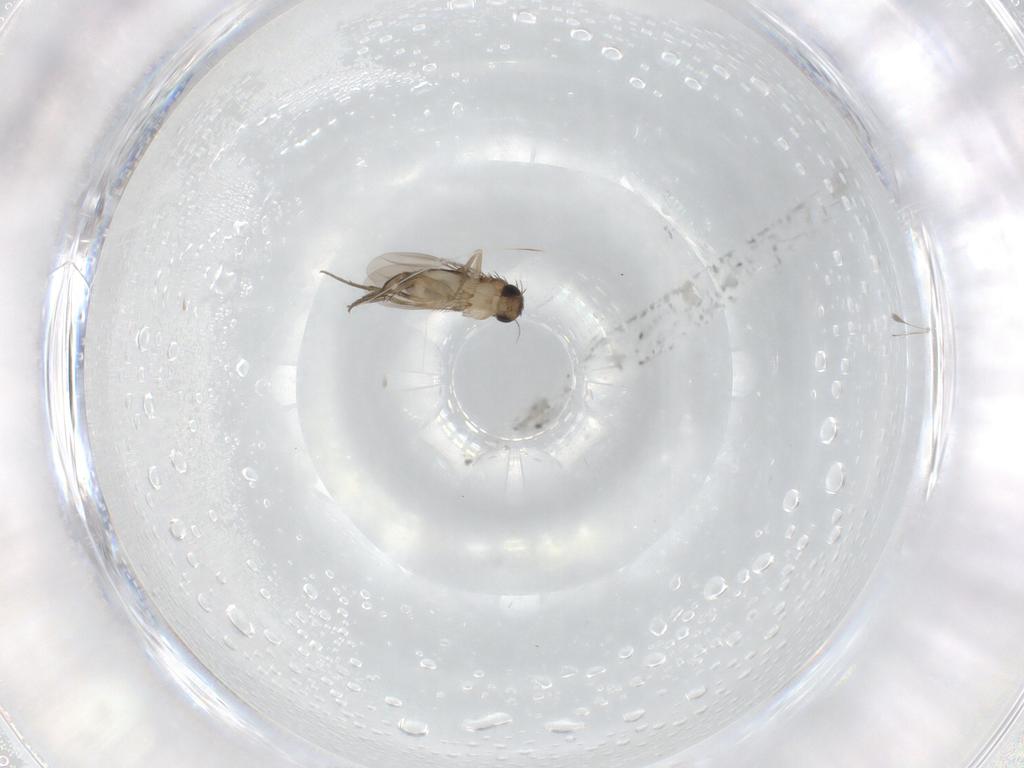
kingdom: Animalia
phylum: Arthropoda
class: Insecta
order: Diptera
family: Phoridae
